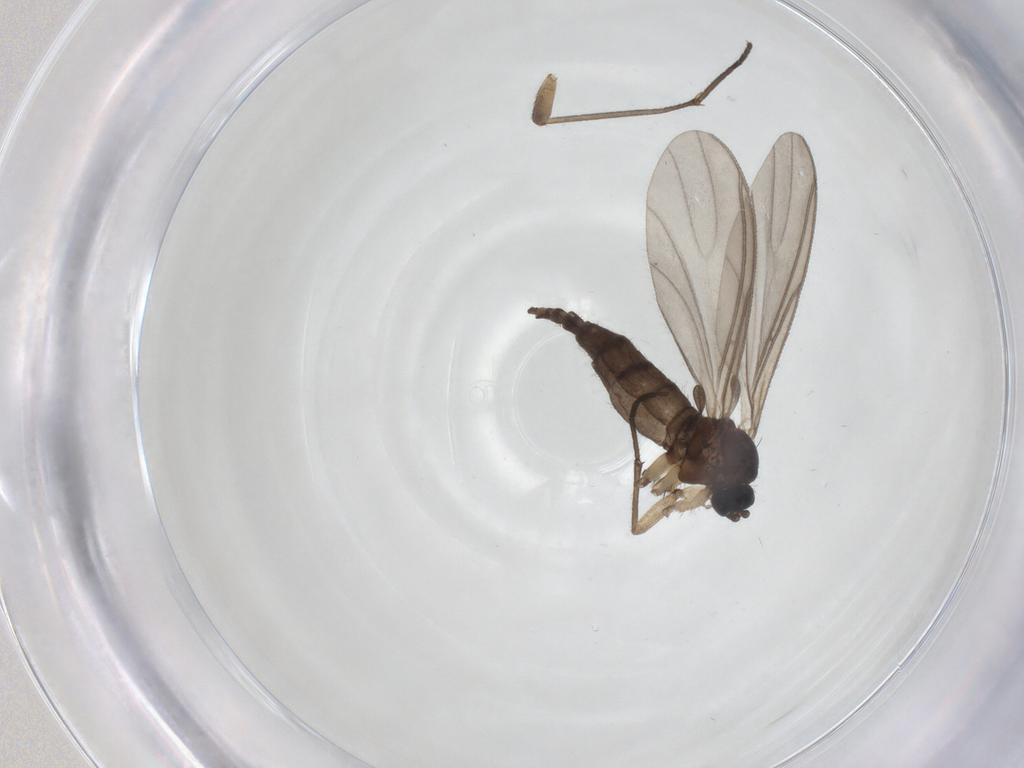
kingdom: Animalia
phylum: Arthropoda
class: Insecta
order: Diptera
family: Sciaridae
